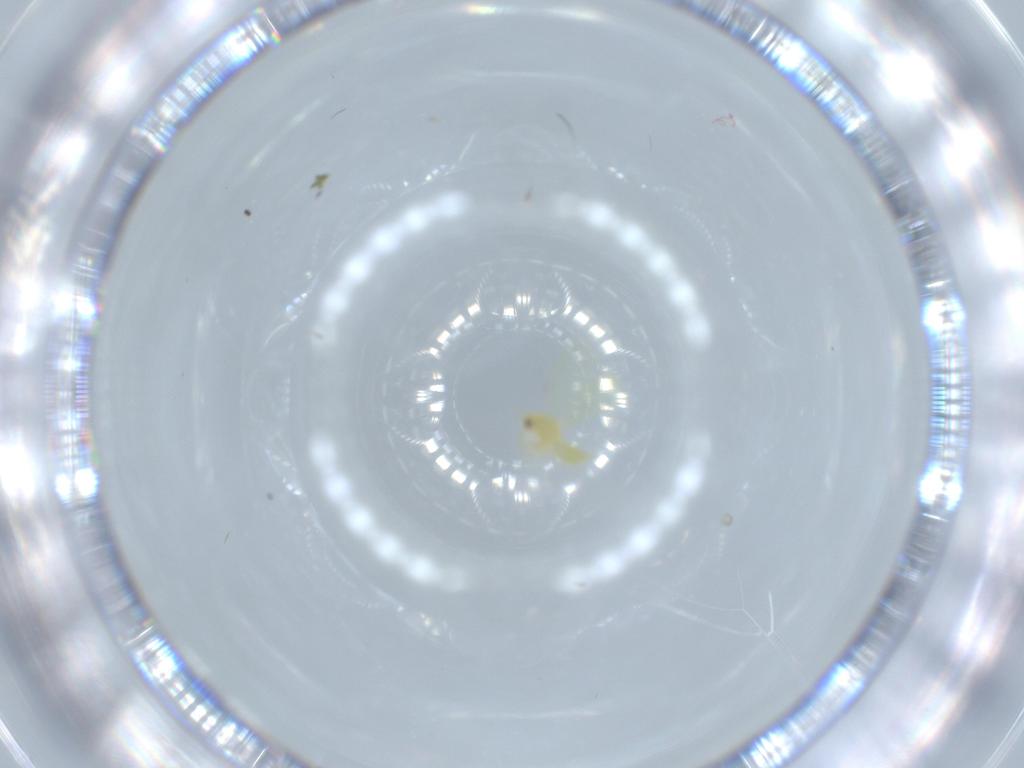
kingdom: Animalia
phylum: Arthropoda
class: Insecta
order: Hemiptera
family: Aleyrodidae
